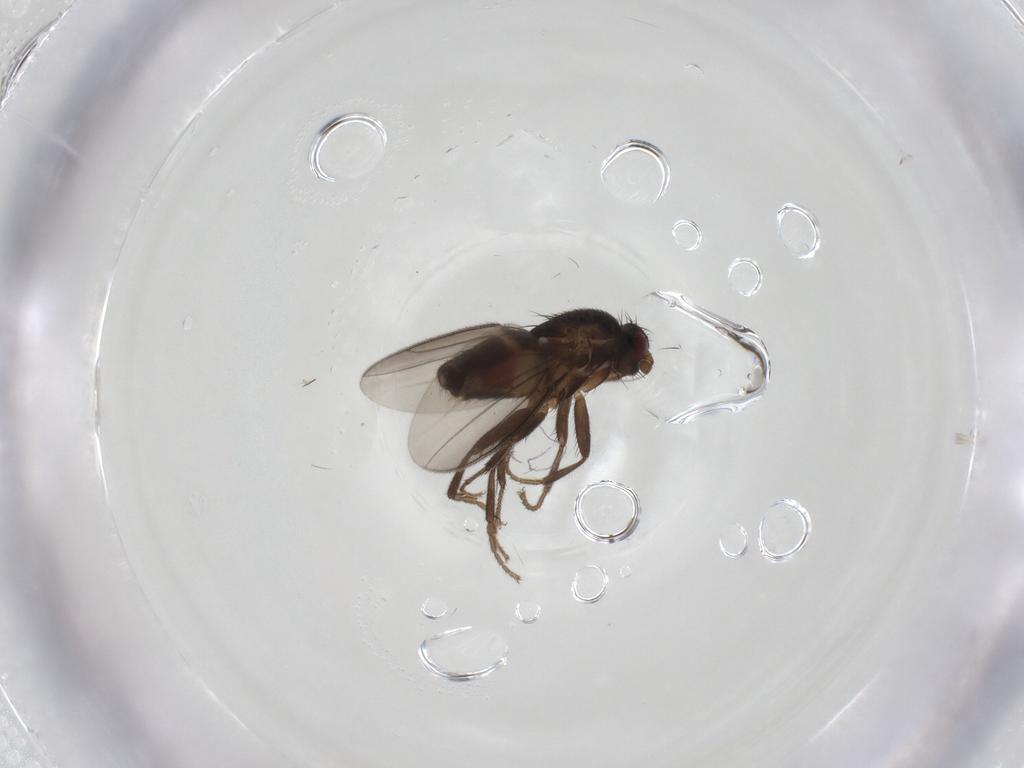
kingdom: Animalia
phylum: Arthropoda
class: Insecta
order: Diptera
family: Sphaeroceridae
